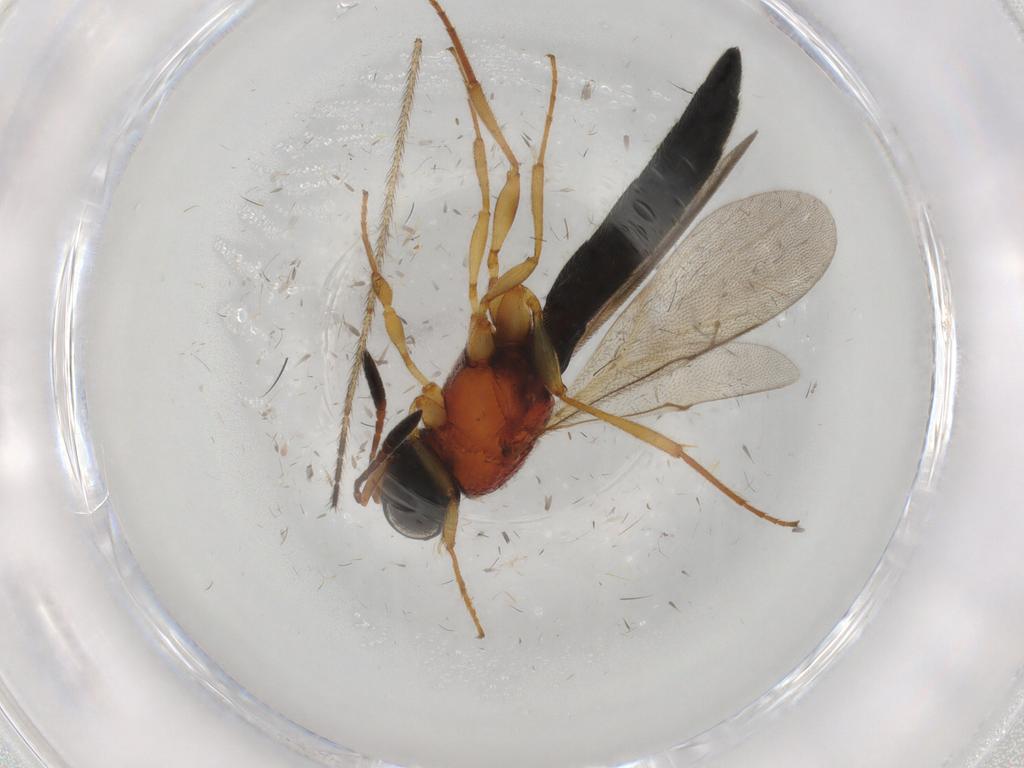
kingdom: Animalia
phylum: Arthropoda
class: Insecta
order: Hymenoptera
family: Scelionidae
